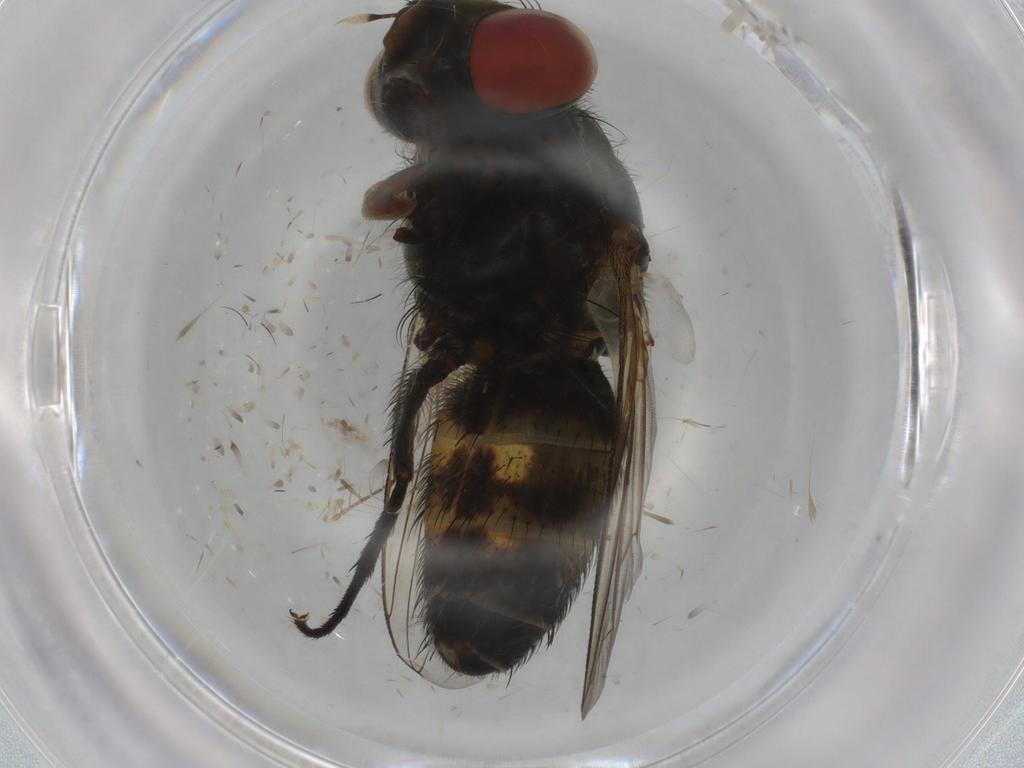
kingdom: Animalia
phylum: Arthropoda
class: Insecta
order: Diptera
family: Sarcophagidae
